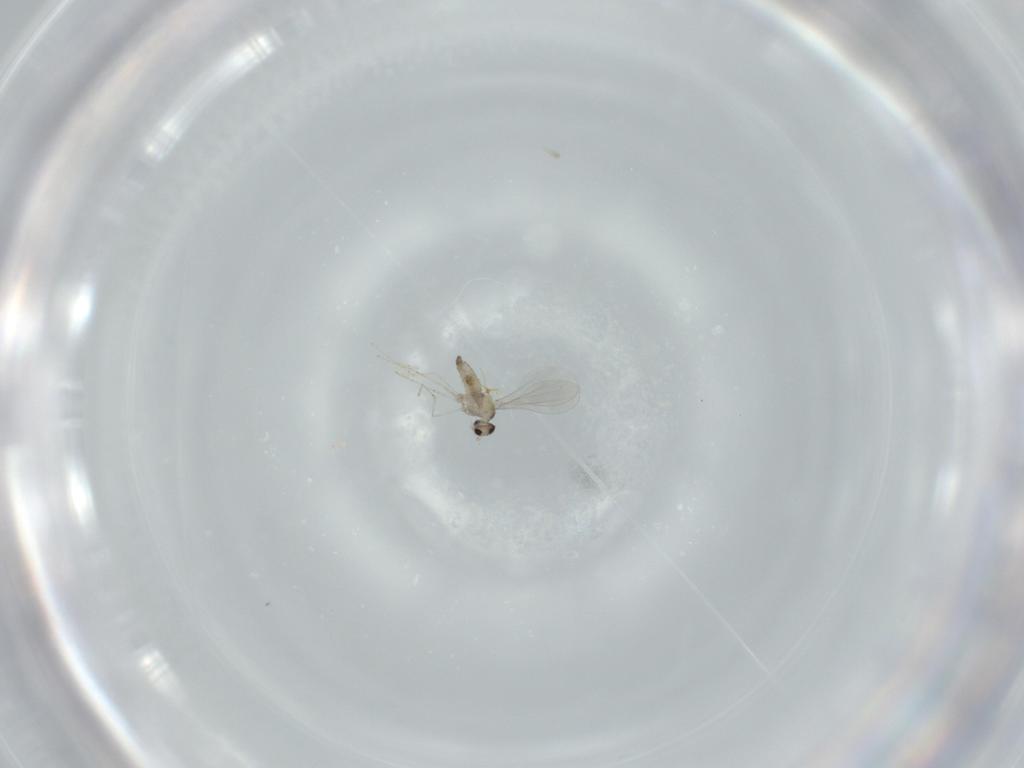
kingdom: Animalia
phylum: Arthropoda
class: Insecta
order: Diptera
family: Cecidomyiidae
